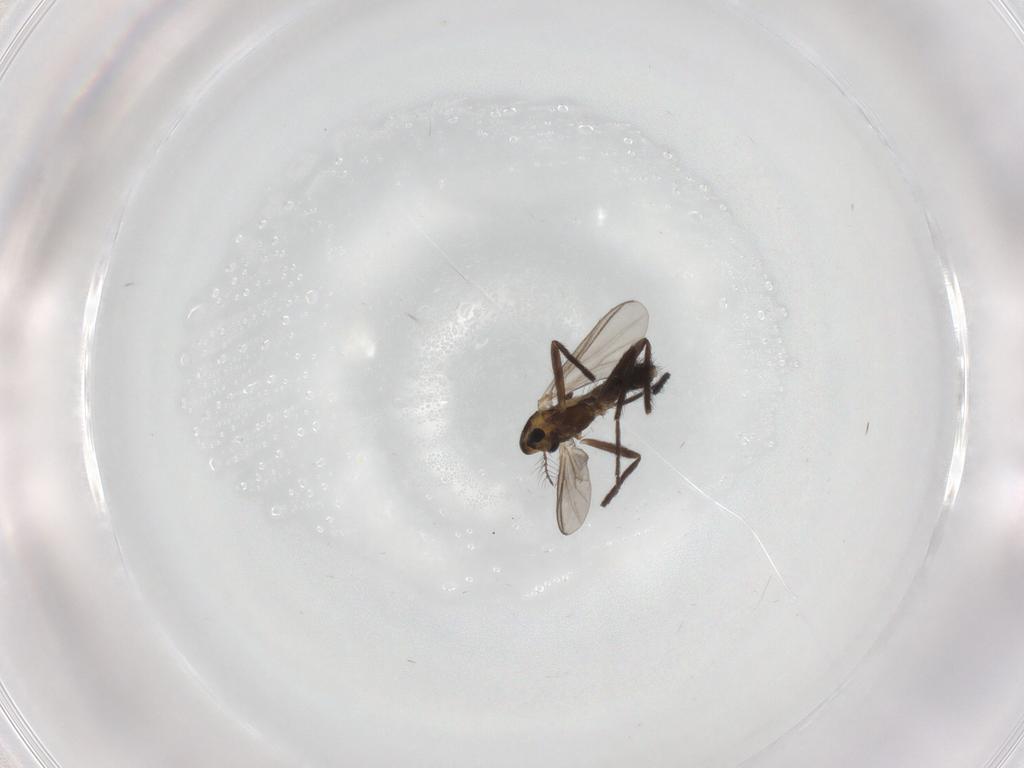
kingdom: Animalia
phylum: Arthropoda
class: Insecta
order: Diptera
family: Chironomidae
